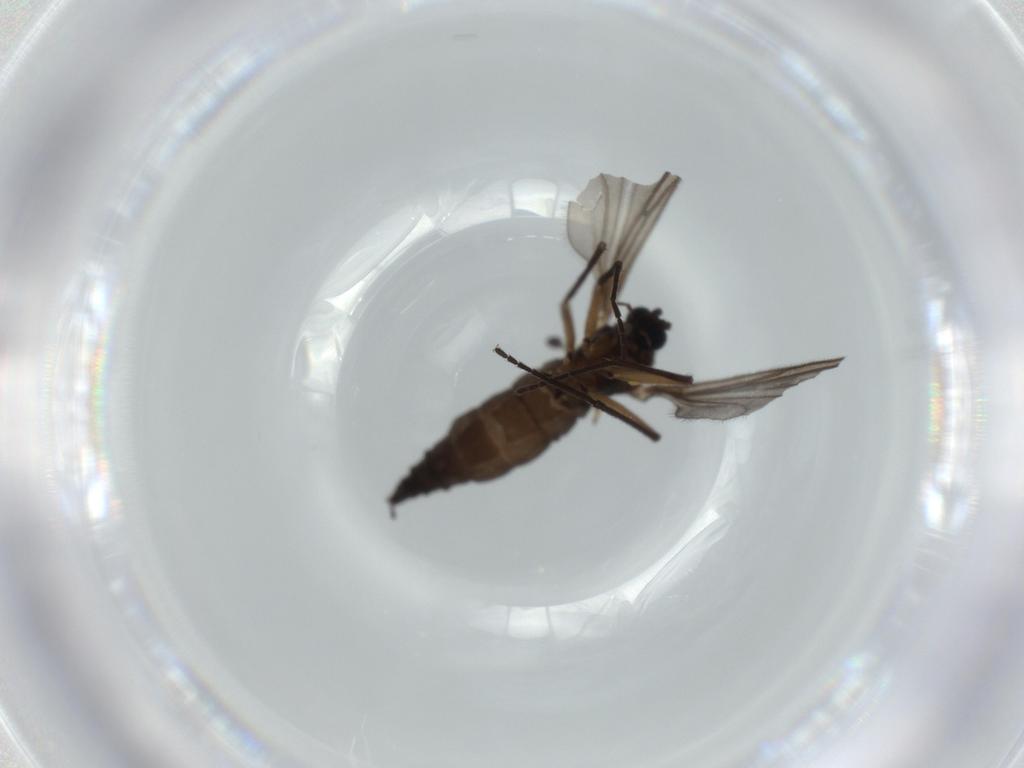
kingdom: Animalia
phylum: Arthropoda
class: Insecta
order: Diptera
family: Sciaridae
